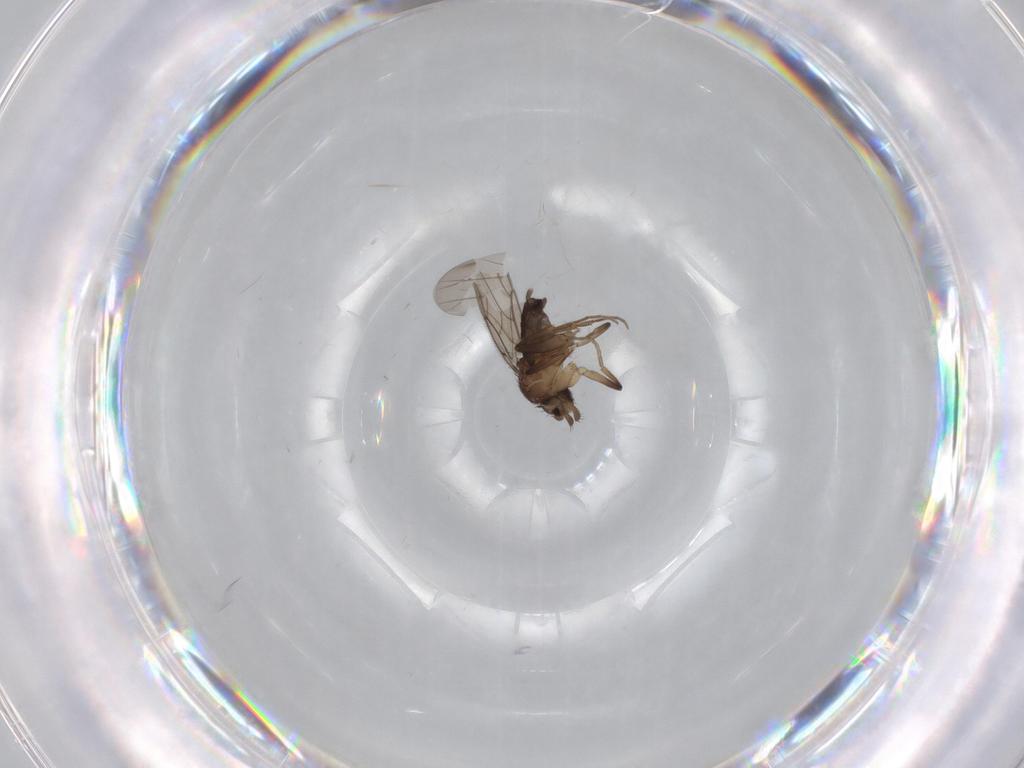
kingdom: Animalia
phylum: Arthropoda
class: Insecta
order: Diptera
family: Phoridae
